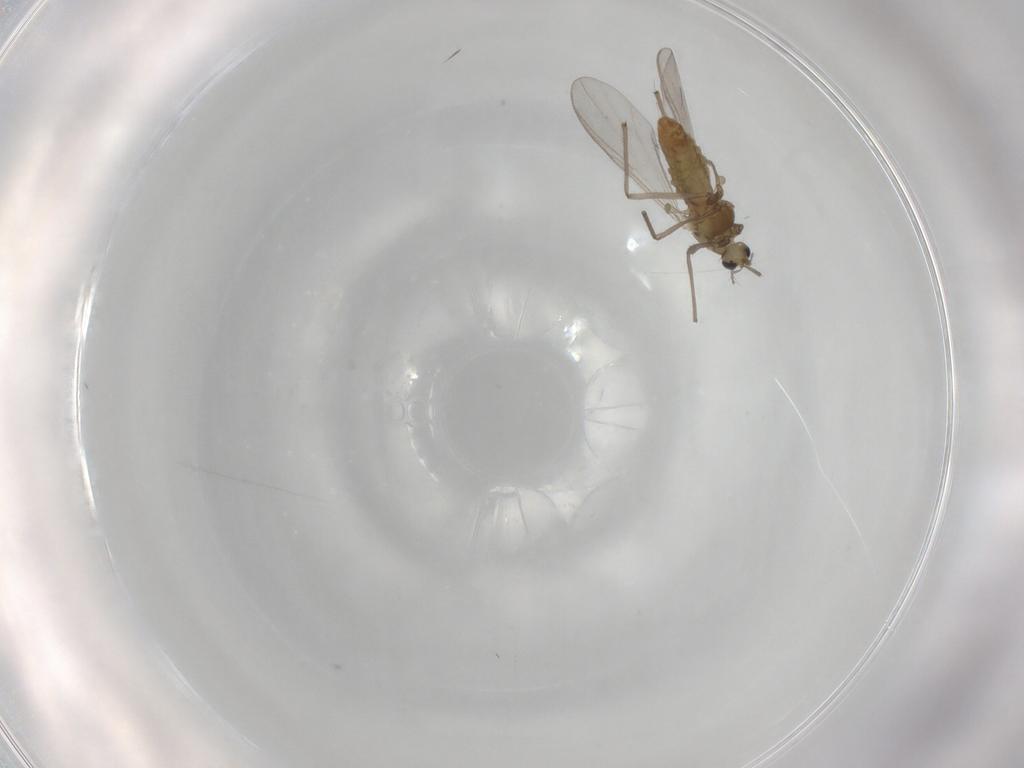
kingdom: Animalia
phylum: Arthropoda
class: Insecta
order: Diptera
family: Chironomidae
